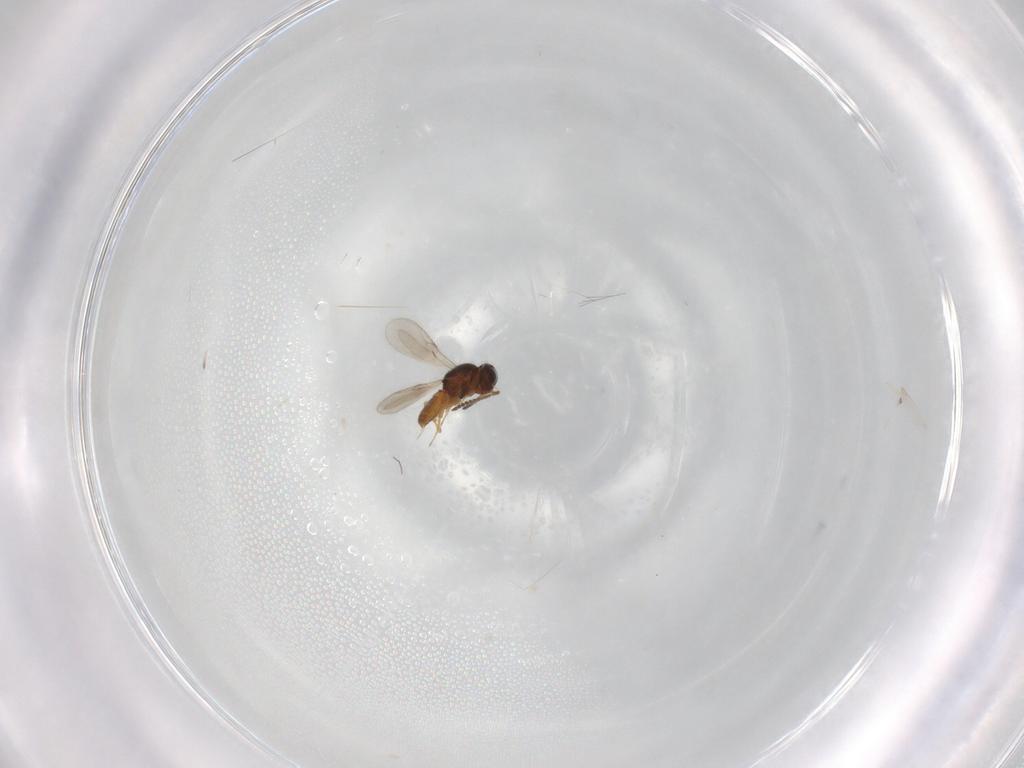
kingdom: Animalia
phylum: Arthropoda
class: Insecta
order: Hymenoptera
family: Scelionidae
